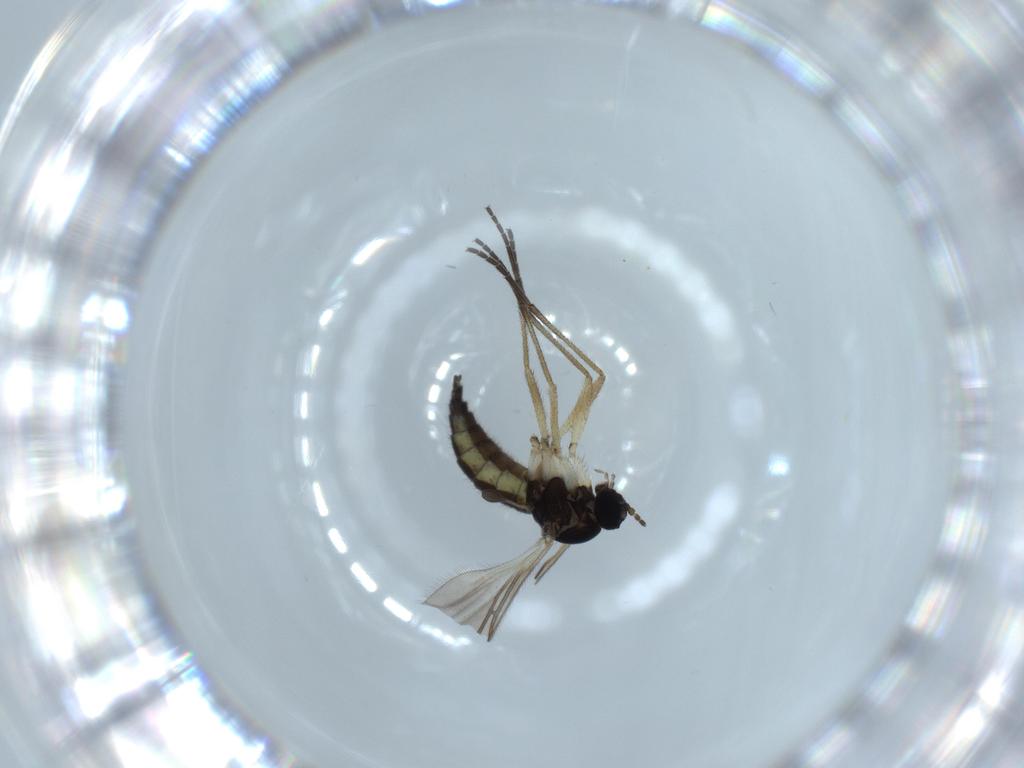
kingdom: Animalia
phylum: Arthropoda
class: Insecta
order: Diptera
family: Sciaridae
